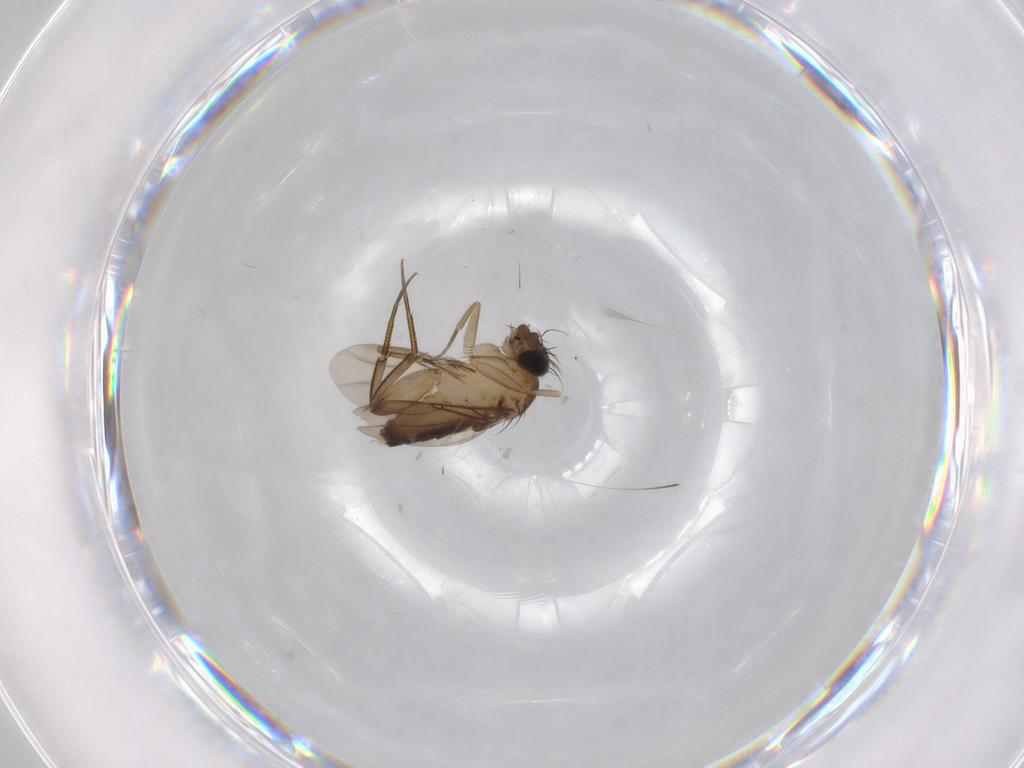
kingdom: Animalia
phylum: Arthropoda
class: Insecta
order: Diptera
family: Phoridae
